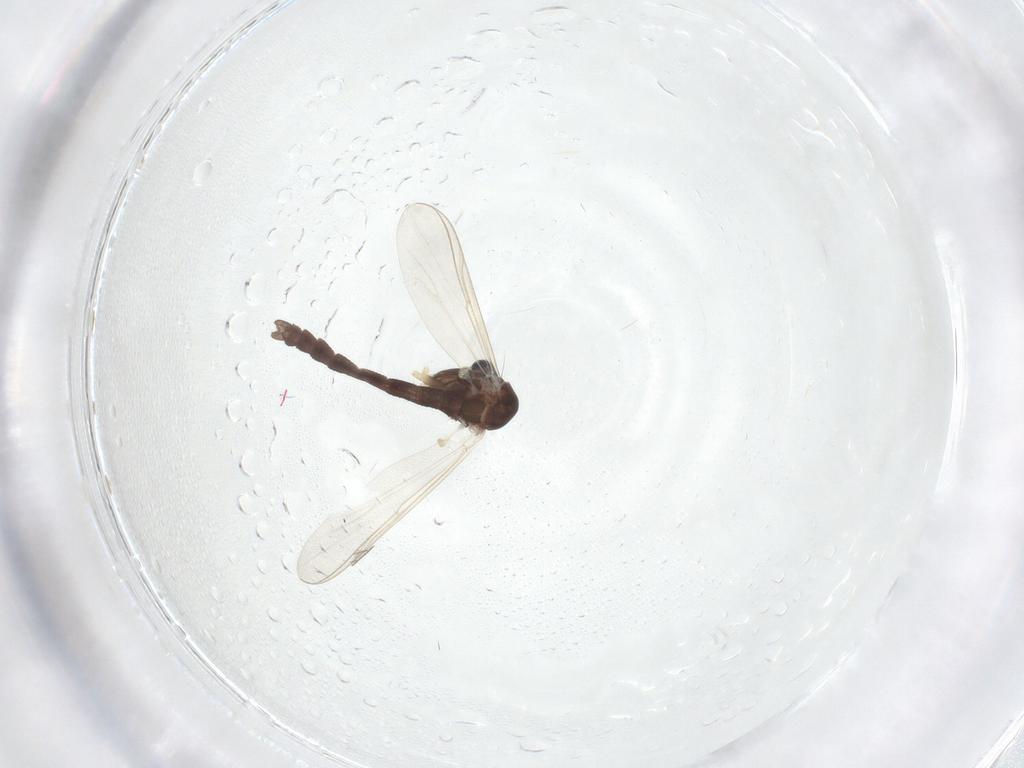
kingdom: Animalia
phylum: Arthropoda
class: Insecta
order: Diptera
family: Chironomidae
